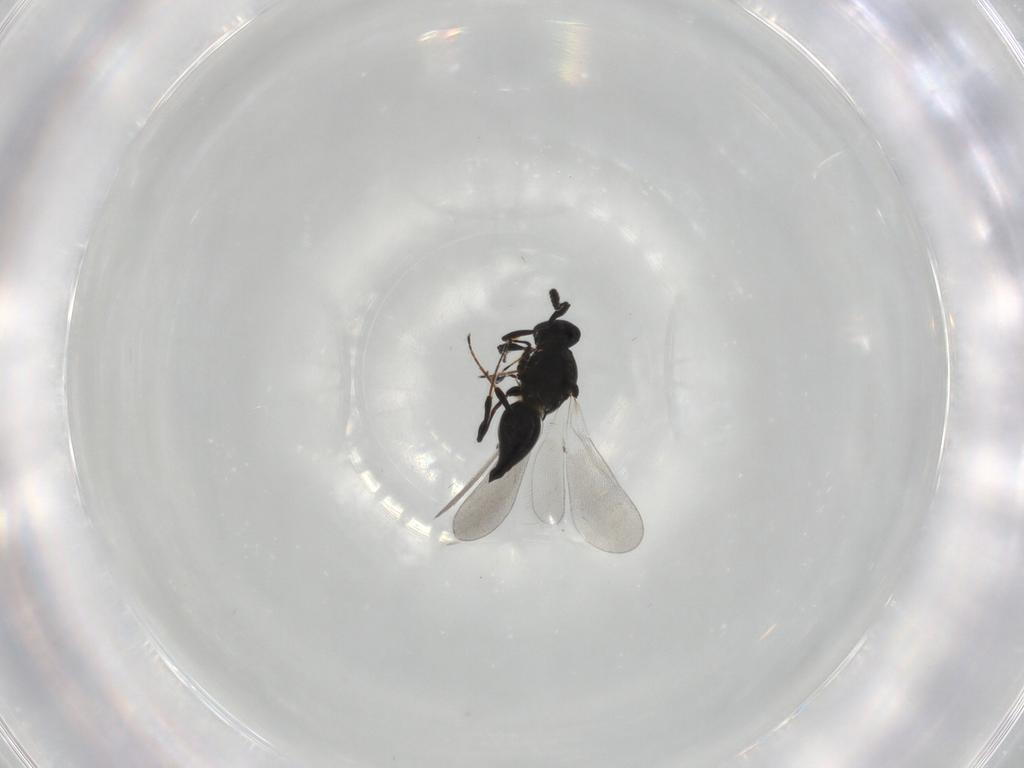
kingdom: Animalia
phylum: Arthropoda
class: Insecta
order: Hymenoptera
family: Platygastridae
